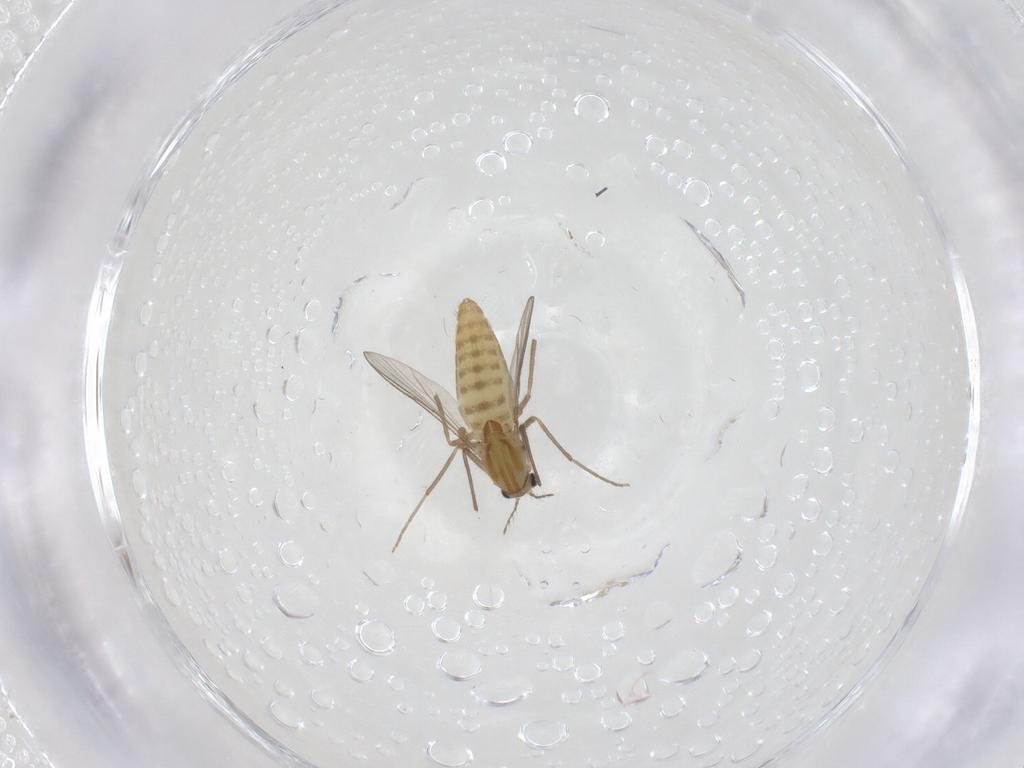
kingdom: Animalia
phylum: Arthropoda
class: Insecta
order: Diptera
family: Chironomidae
